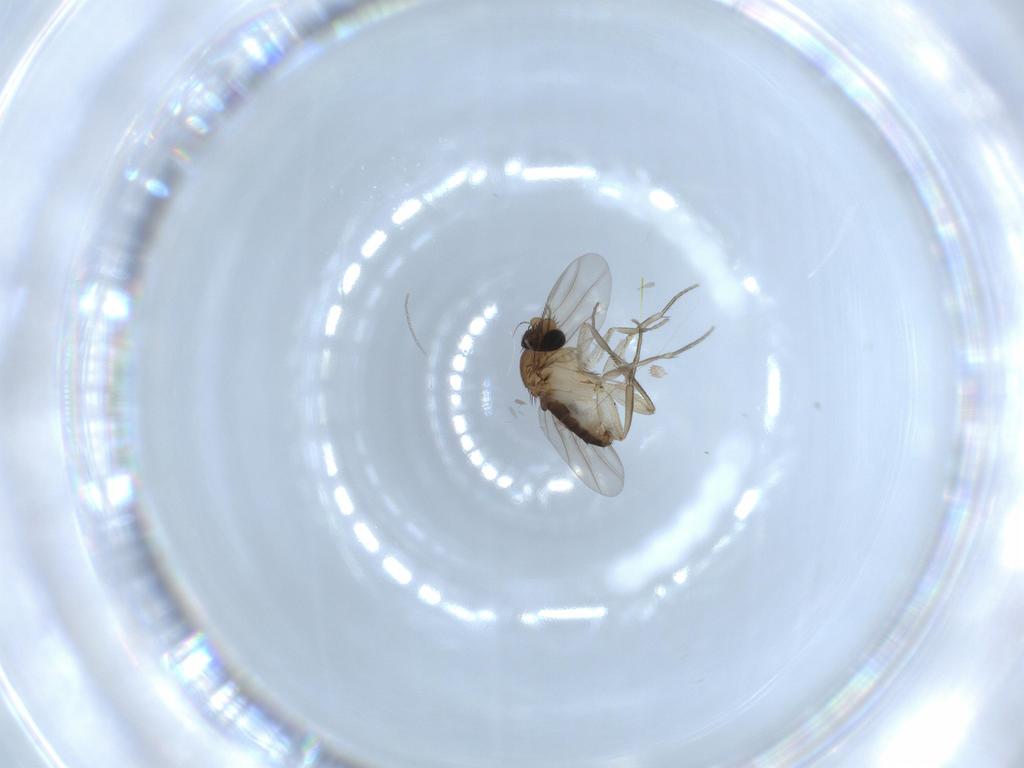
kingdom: Animalia
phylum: Arthropoda
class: Insecta
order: Diptera
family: Phoridae
